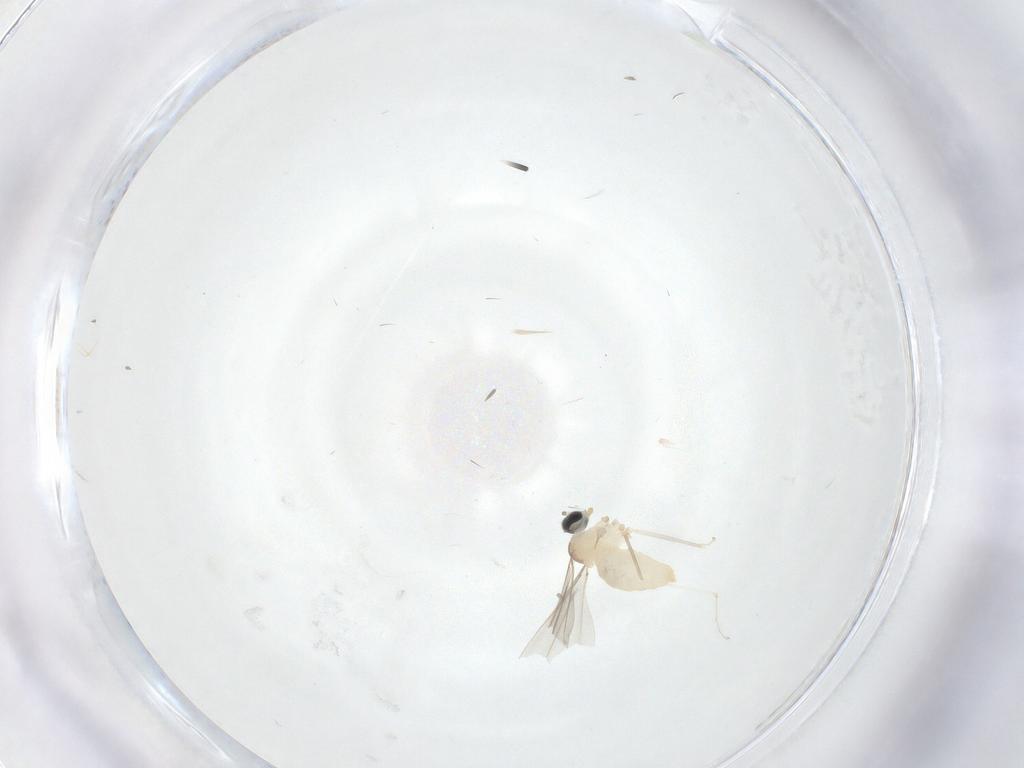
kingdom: Animalia
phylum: Arthropoda
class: Insecta
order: Diptera
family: Cecidomyiidae
